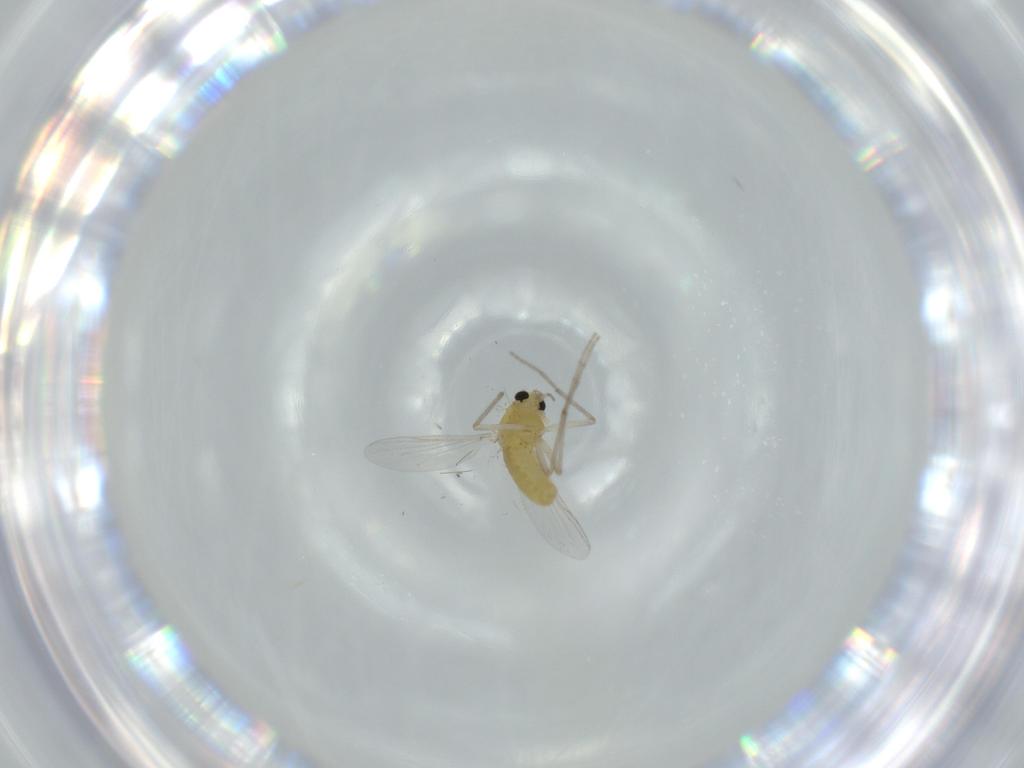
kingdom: Animalia
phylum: Arthropoda
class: Insecta
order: Diptera
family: Chironomidae
